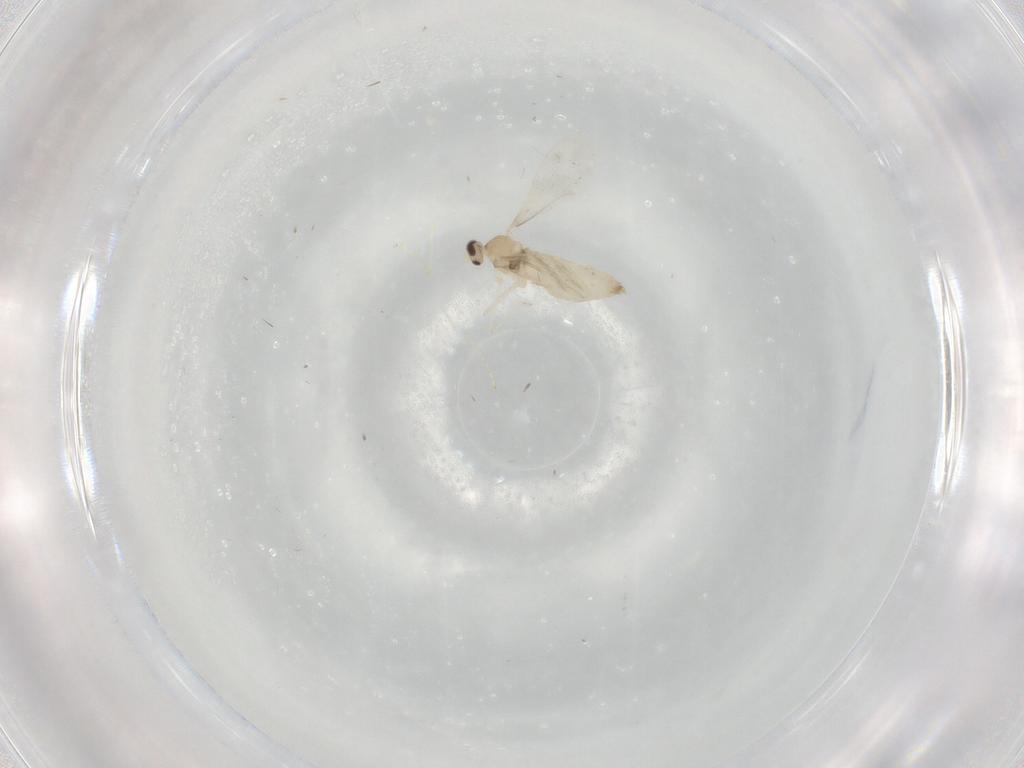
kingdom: Animalia
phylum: Arthropoda
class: Insecta
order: Diptera
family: Cecidomyiidae
